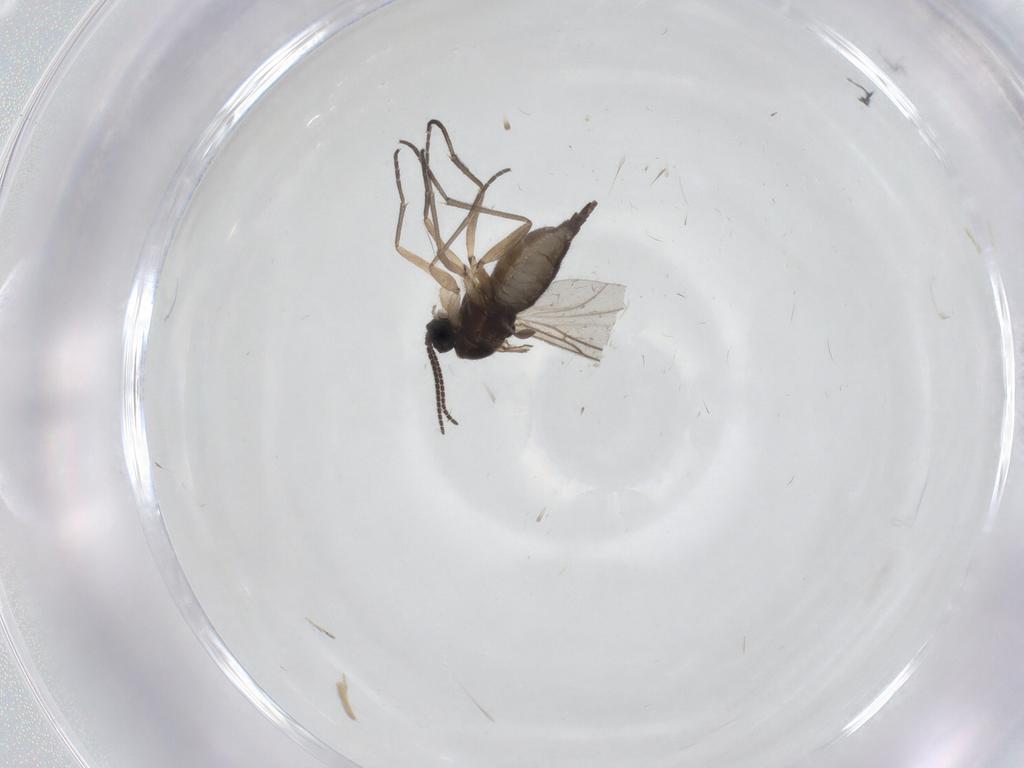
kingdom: Animalia
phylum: Arthropoda
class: Insecta
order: Diptera
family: Sciaridae
